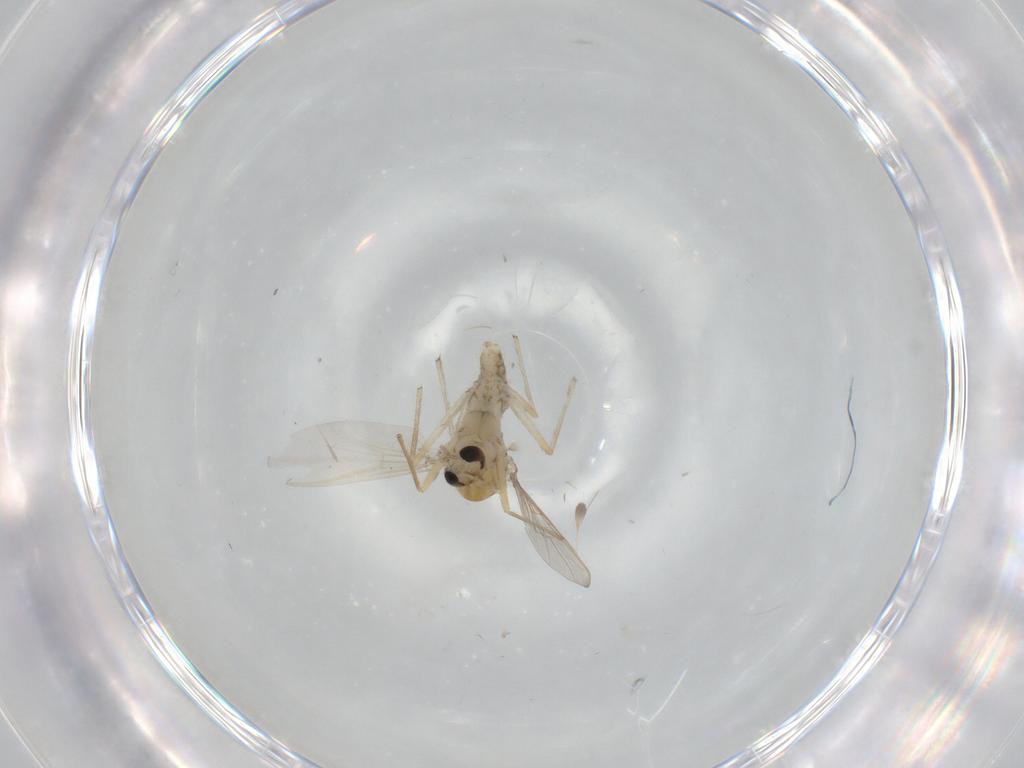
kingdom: Animalia
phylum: Arthropoda
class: Insecta
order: Diptera
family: Chironomidae
